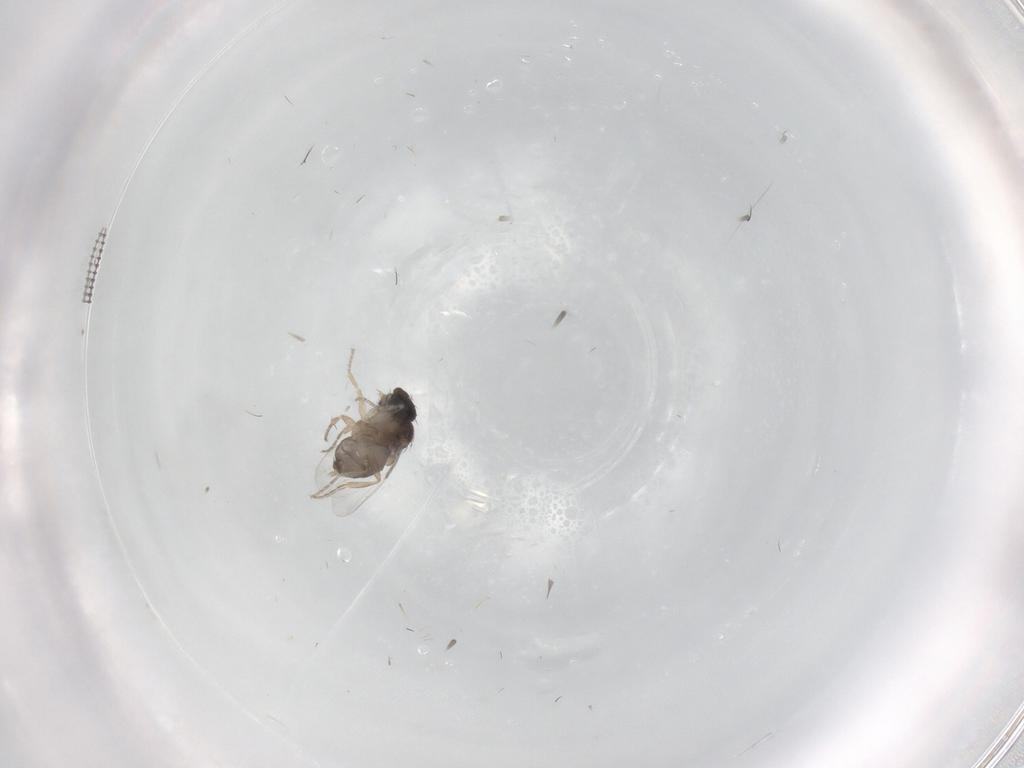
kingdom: Animalia
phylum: Arthropoda
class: Insecta
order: Diptera
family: Phoridae
